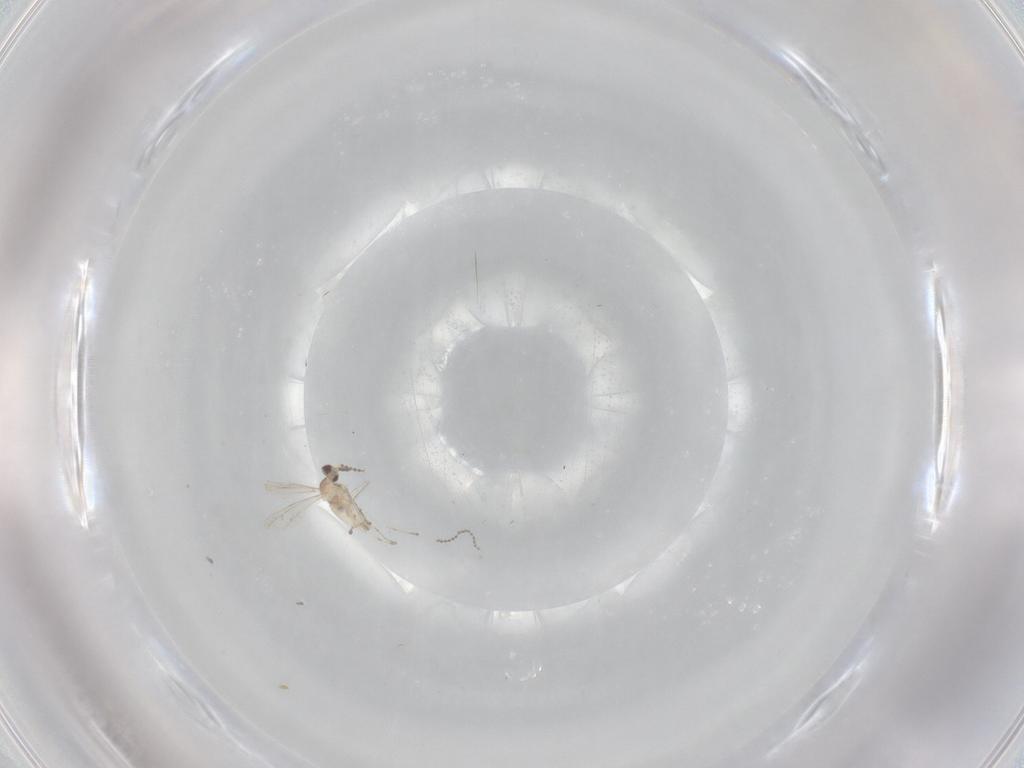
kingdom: Animalia
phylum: Arthropoda
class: Insecta
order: Diptera
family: Cecidomyiidae
